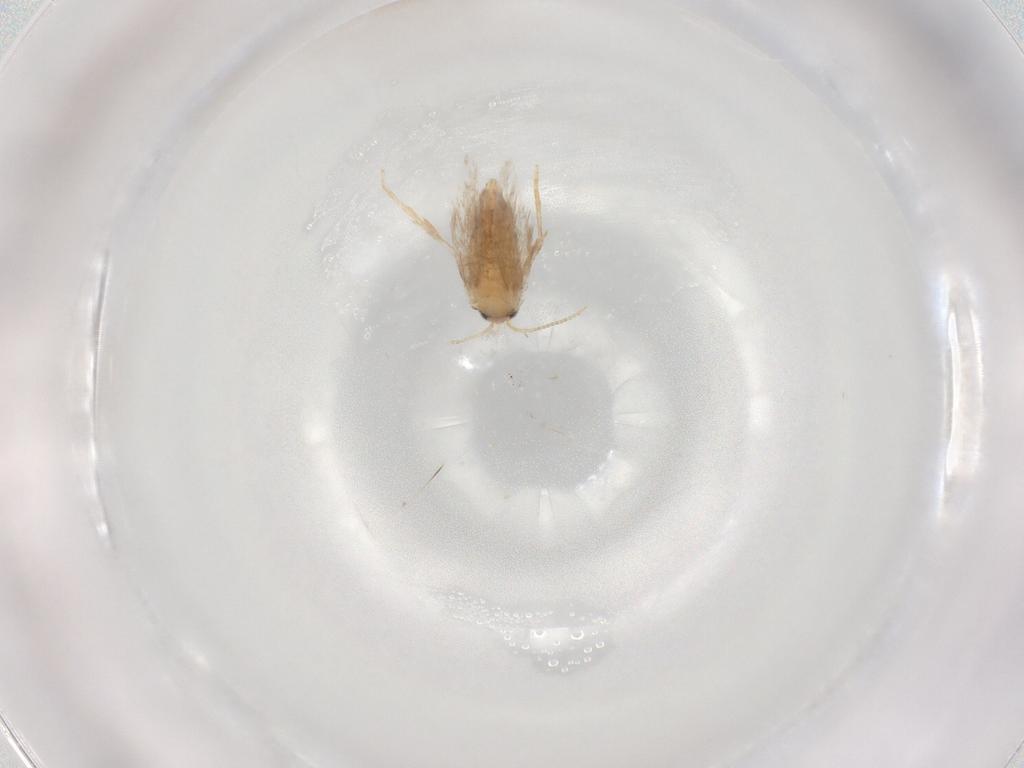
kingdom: Animalia
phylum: Arthropoda
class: Insecta
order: Lepidoptera
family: Nepticulidae
